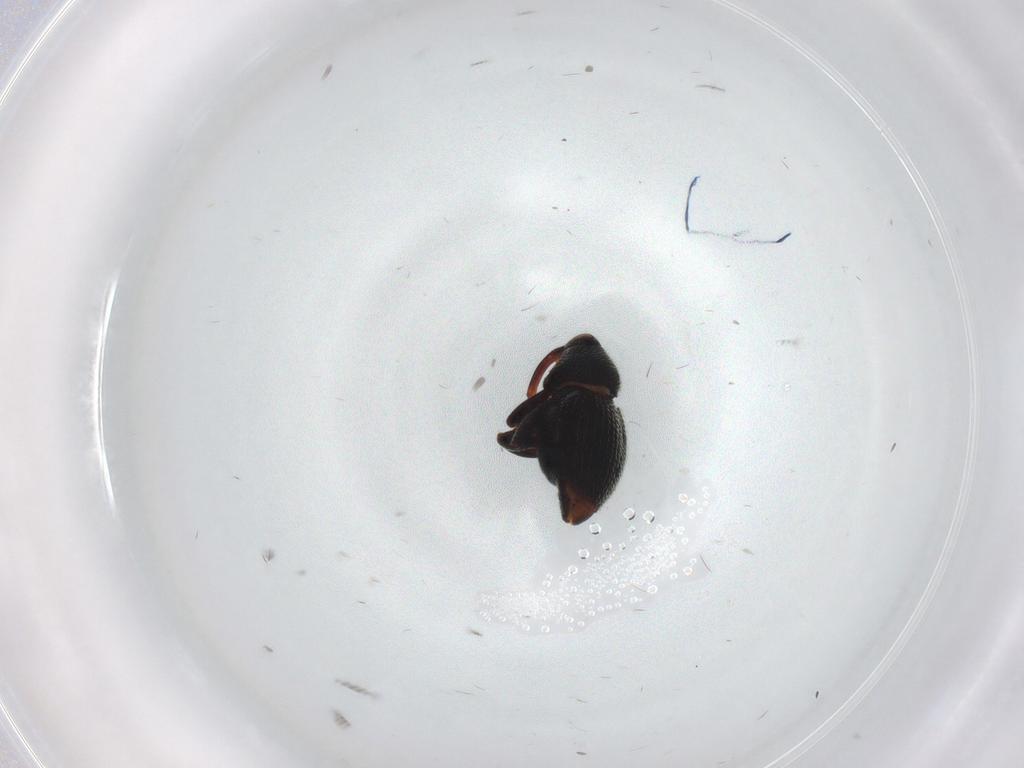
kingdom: Animalia
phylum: Arthropoda
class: Insecta
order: Coleoptera
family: Curculionidae
